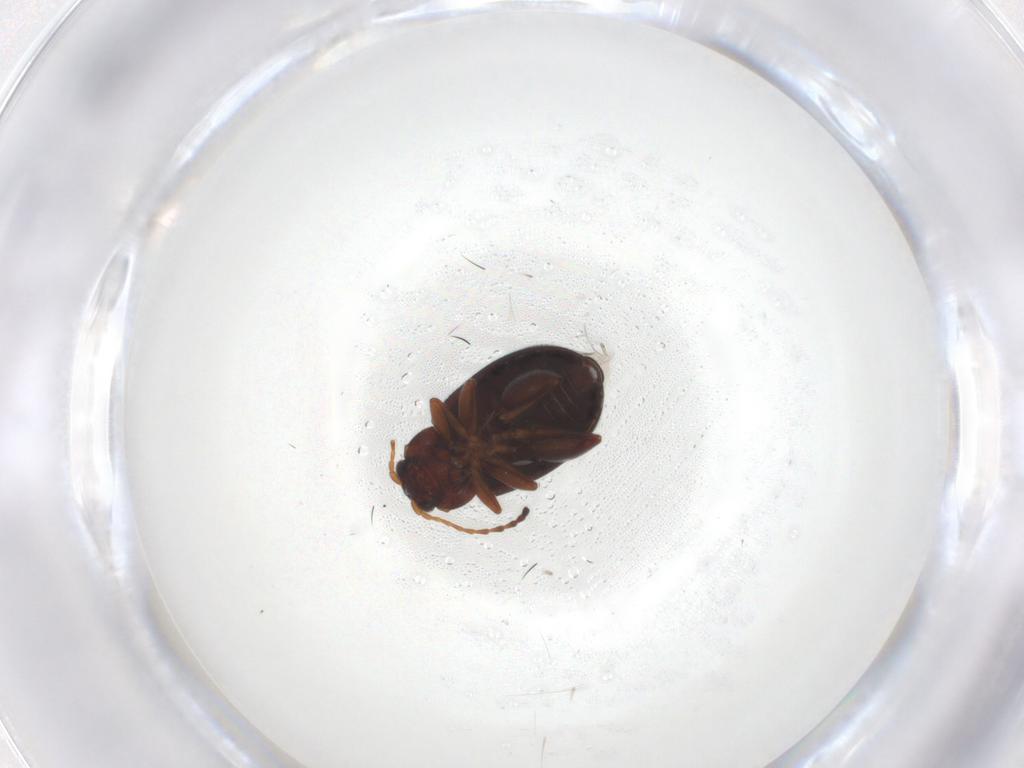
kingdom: Animalia
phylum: Arthropoda
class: Insecta
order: Coleoptera
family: Chrysomelidae
